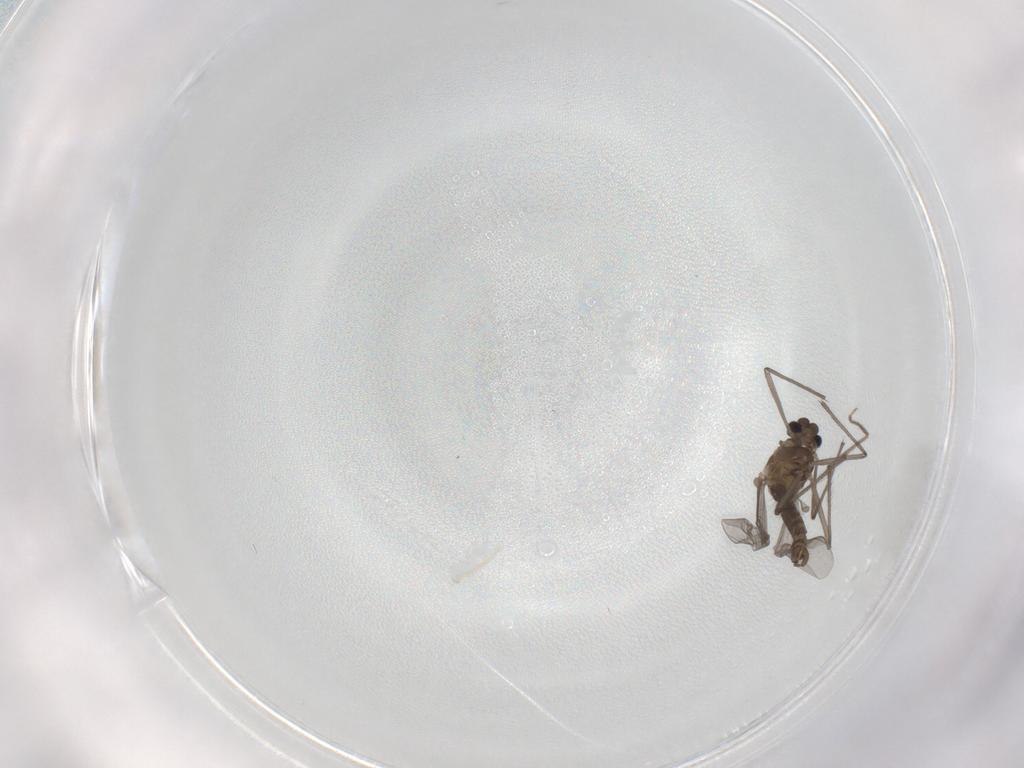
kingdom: Animalia
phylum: Arthropoda
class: Insecta
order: Diptera
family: Chironomidae
